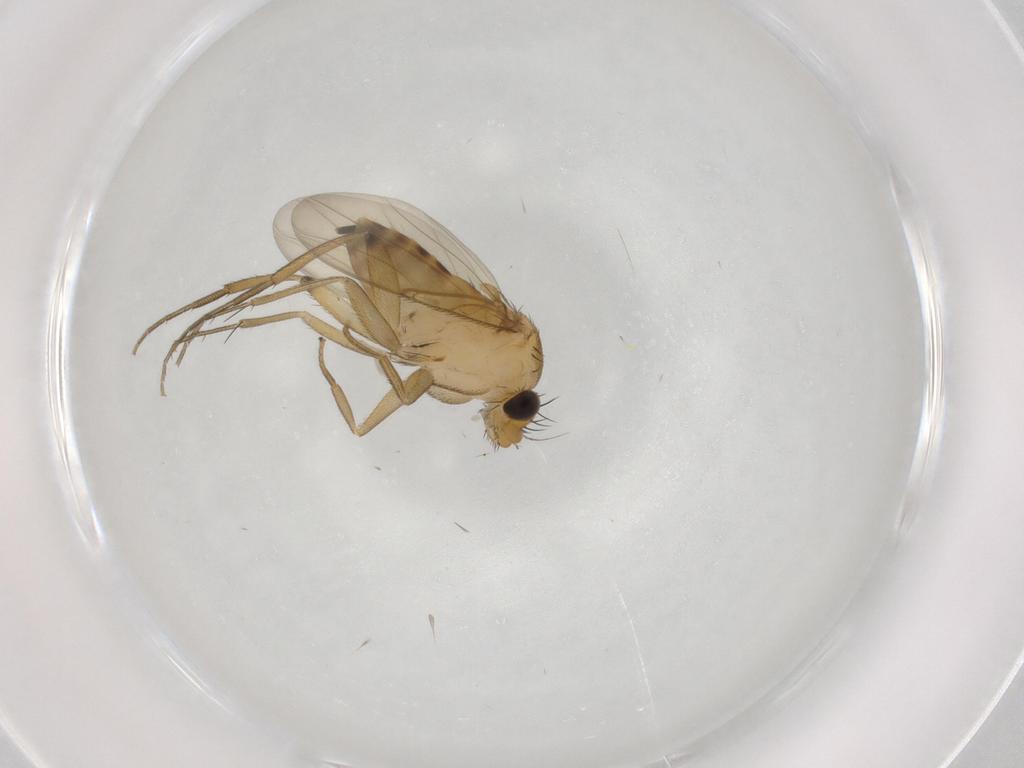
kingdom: Animalia
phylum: Arthropoda
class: Insecta
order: Diptera
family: Phoridae
